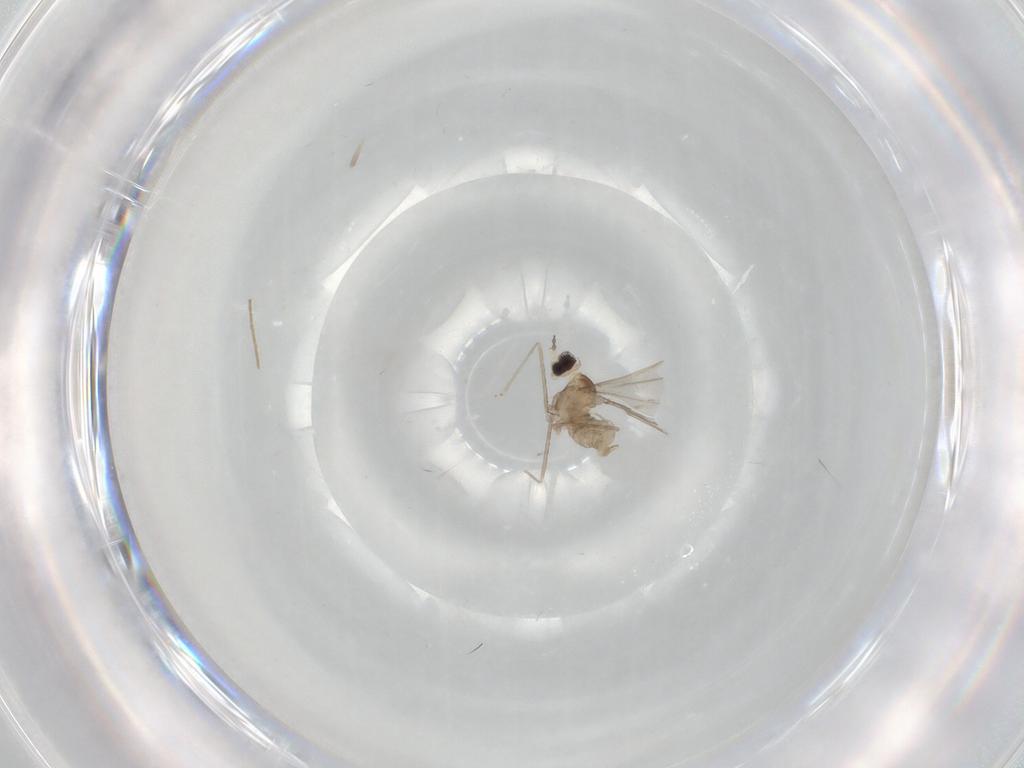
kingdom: Animalia
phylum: Arthropoda
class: Insecta
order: Diptera
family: Cecidomyiidae
